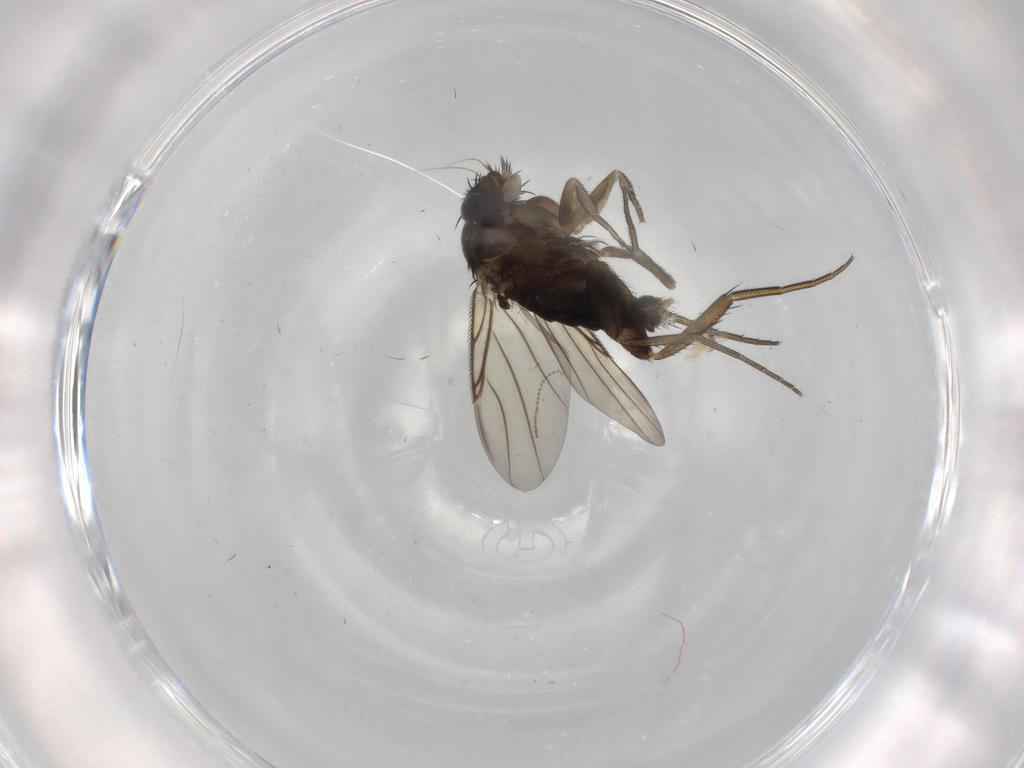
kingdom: Animalia
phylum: Arthropoda
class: Insecta
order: Diptera
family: Phoridae
